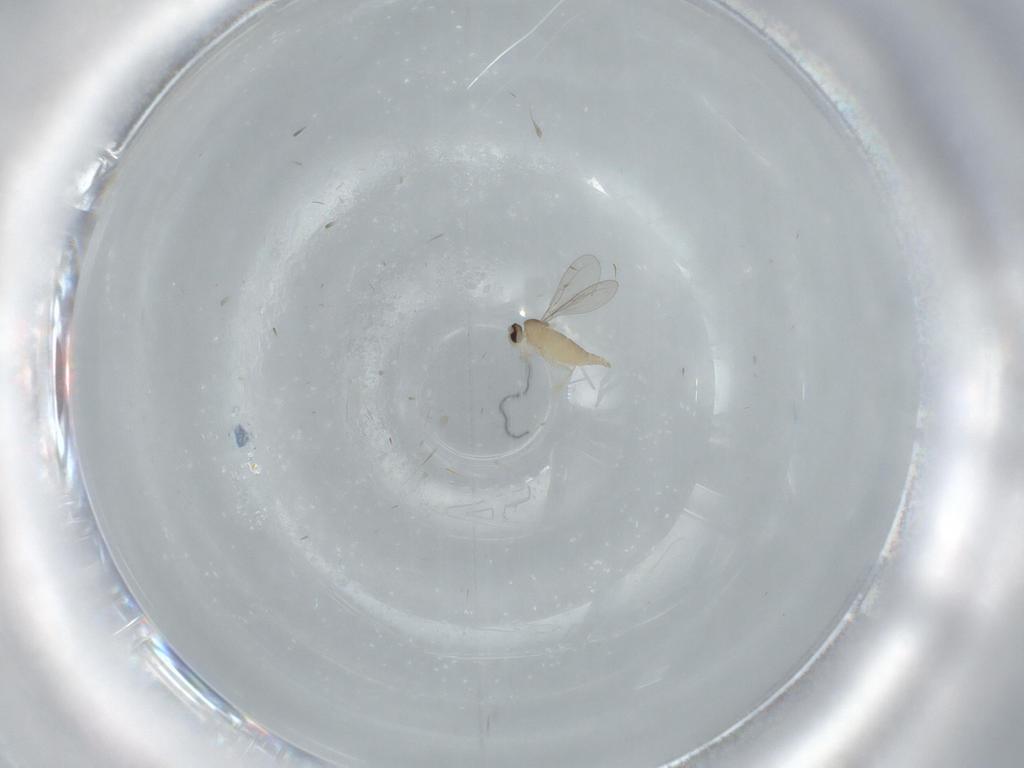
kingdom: Animalia
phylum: Arthropoda
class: Insecta
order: Diptera
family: Cecidomyiidae
